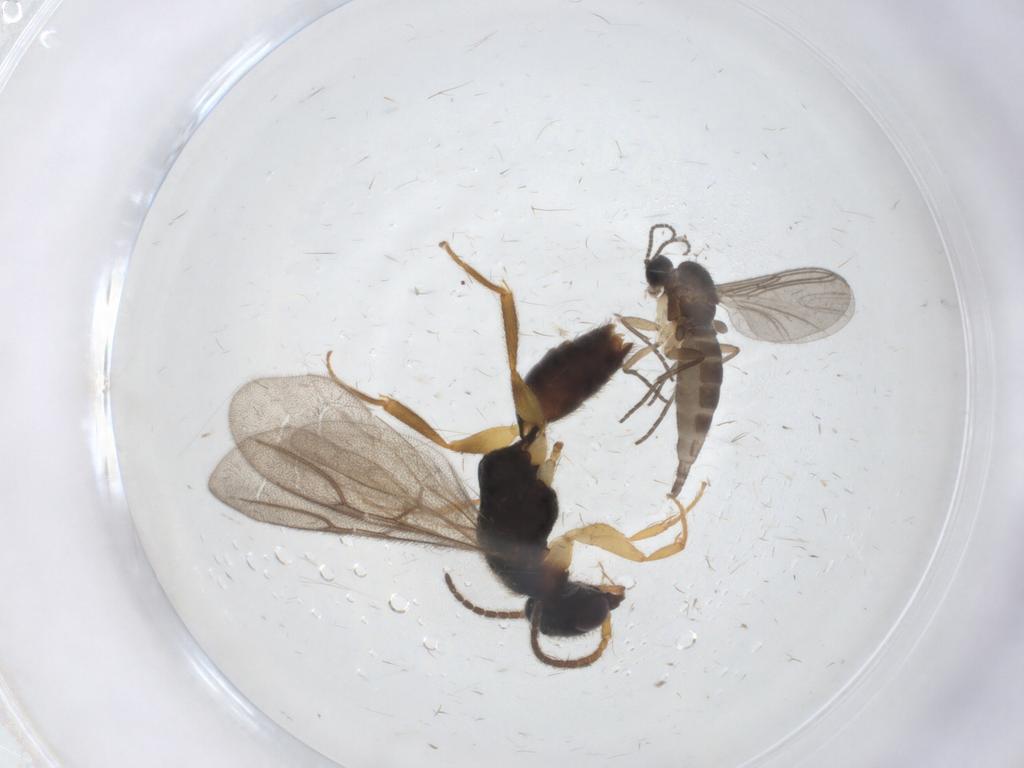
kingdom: Animalia
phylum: Arthropoda
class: Insecta
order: Diptera
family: Sciaridae
